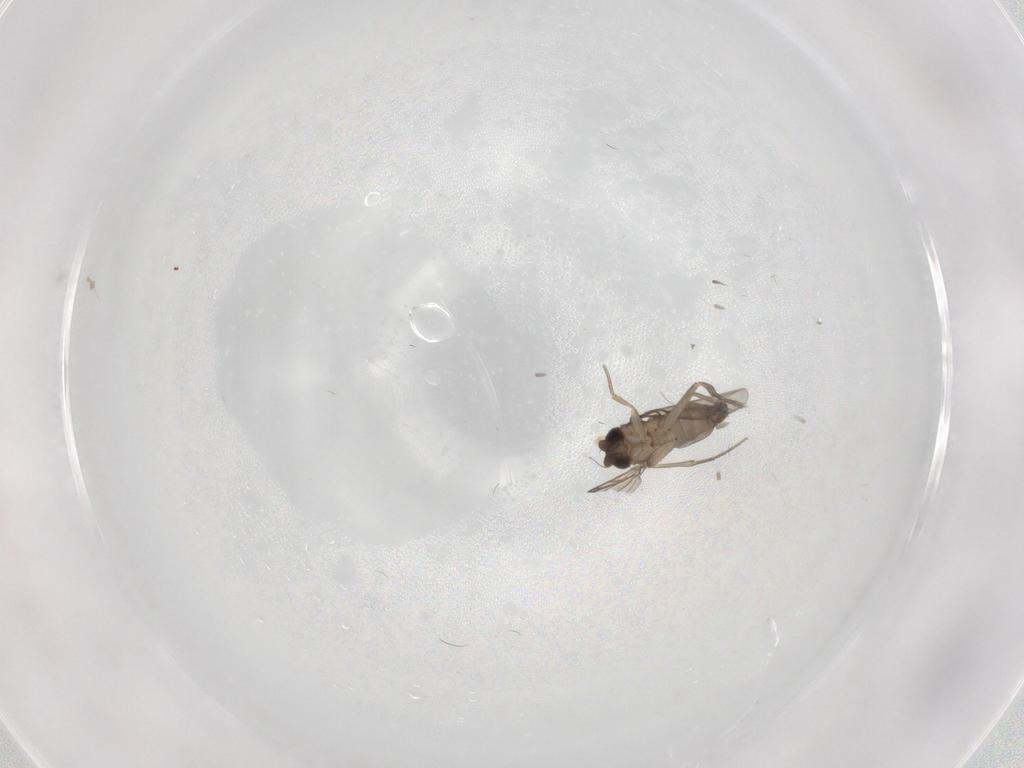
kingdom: Animalia
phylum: Arthropoda
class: Insecta
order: Diptera
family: Phoridae
